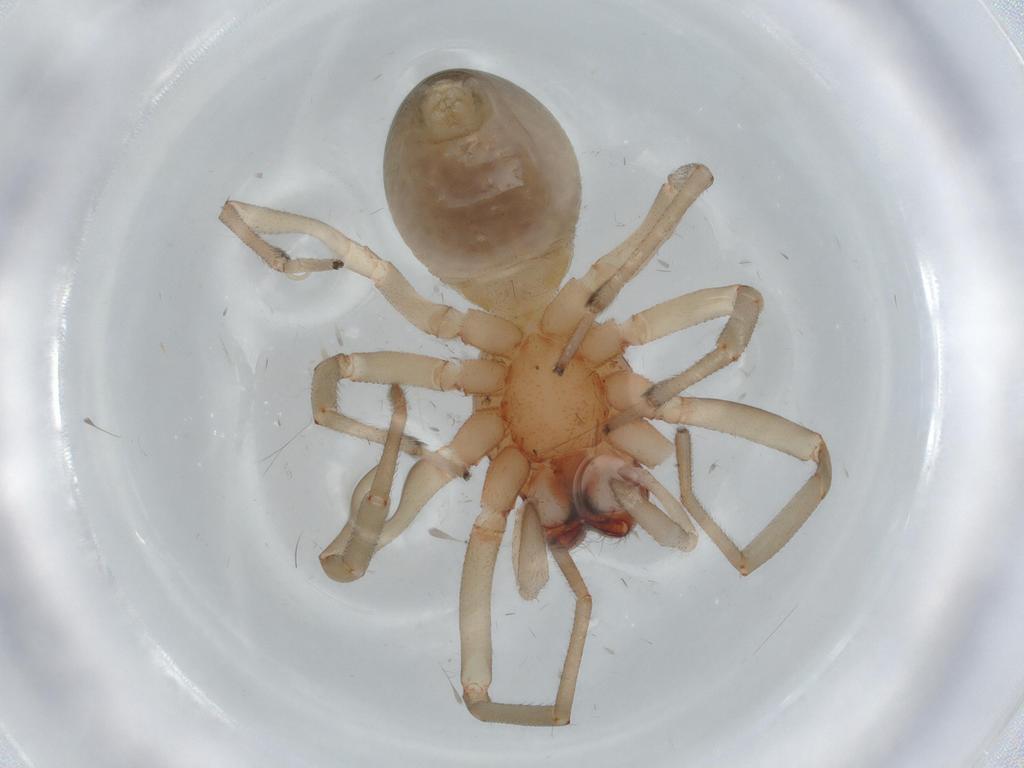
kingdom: Animalia
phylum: Arthropoda
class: Arachnida
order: Araneae
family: Trachelidae
